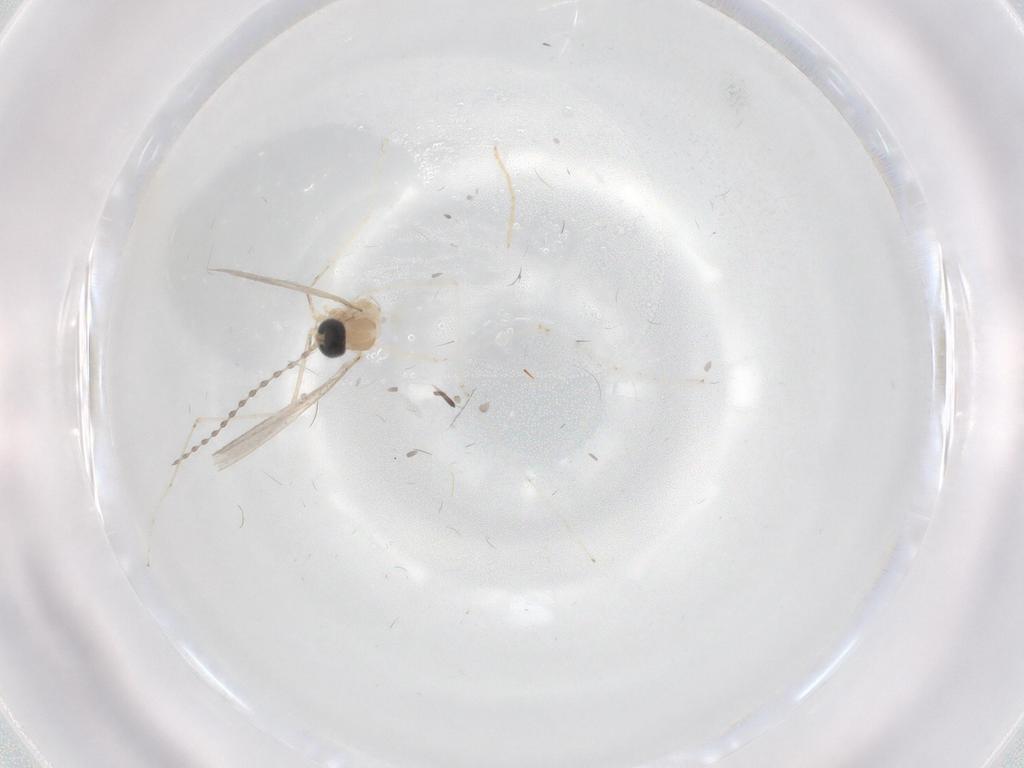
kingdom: Animalia
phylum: Arthropoda
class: Insecta
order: Diptera
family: Cecidomyiidae
